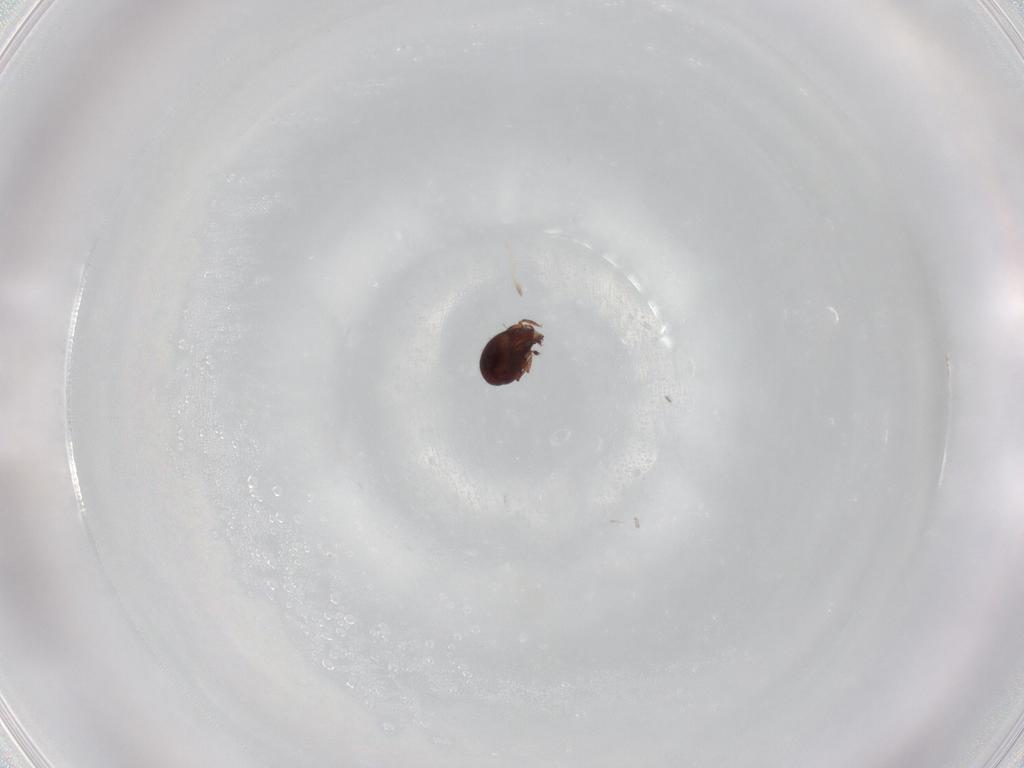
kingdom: Animalia
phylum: Arthropoda
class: Arachnida
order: Sarcoptiformes
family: Humerobatidae
